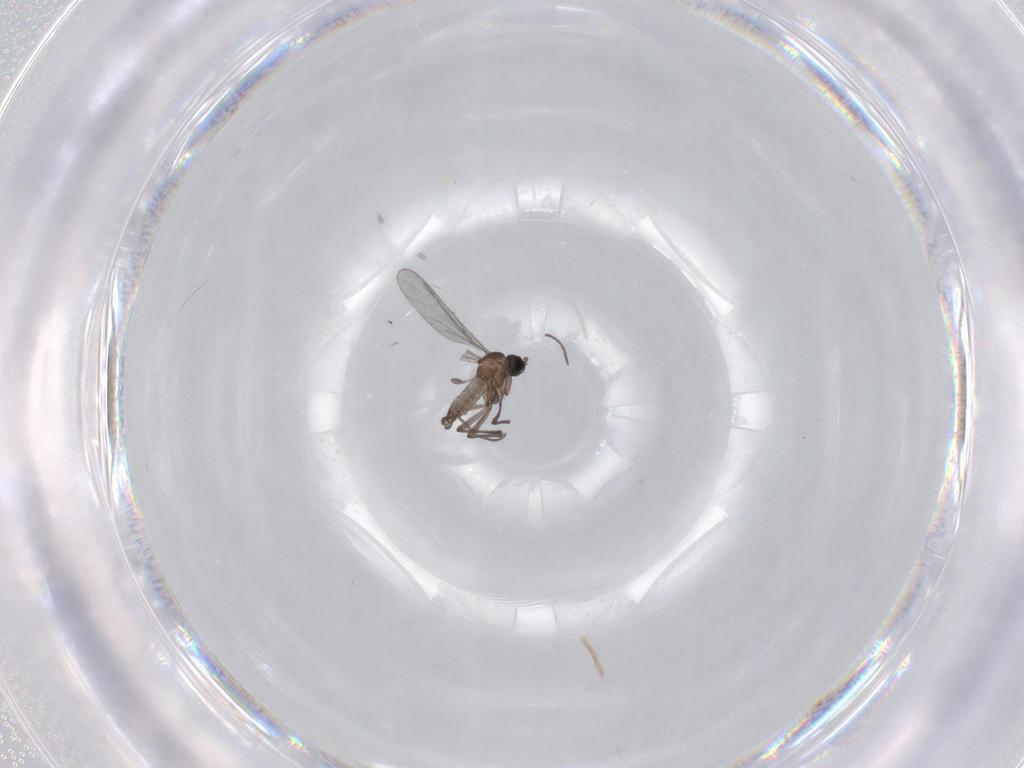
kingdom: Animalia
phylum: Arthropoda
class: Insecta
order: Diptera
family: Sciaridae
